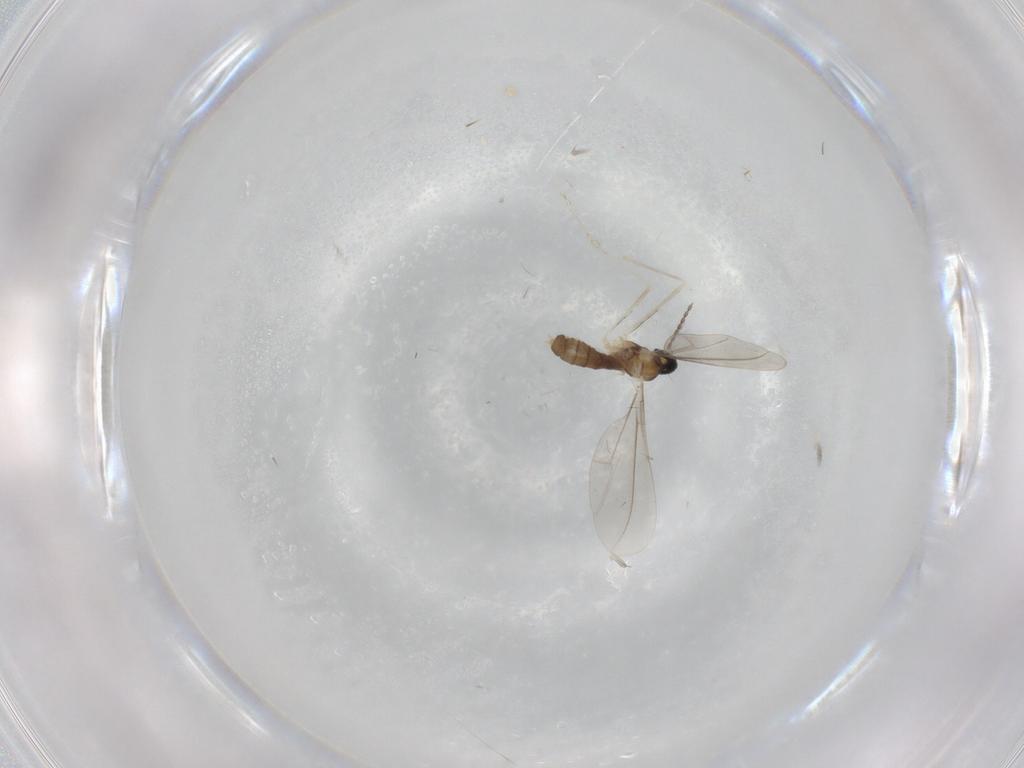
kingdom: Animalia
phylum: Arthropoda
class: Insecta
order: Diptera
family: Cecidomyiidae
